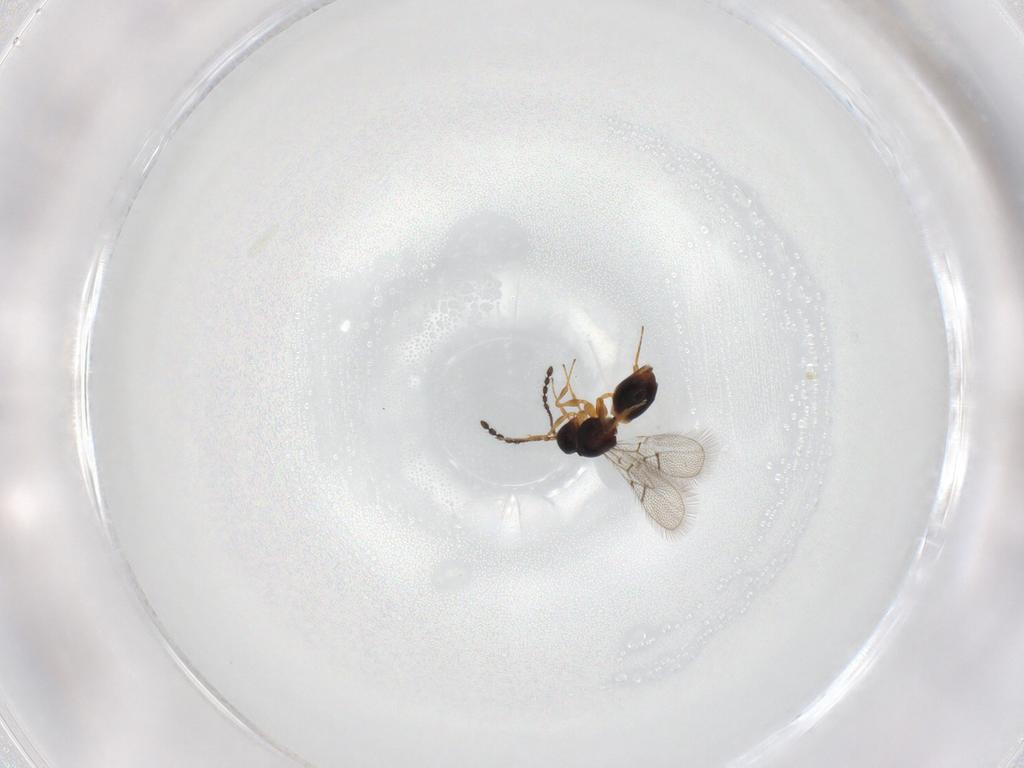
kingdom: Animalia
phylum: Arthropoda
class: Insecta
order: Hymenoptera
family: Figitidae
